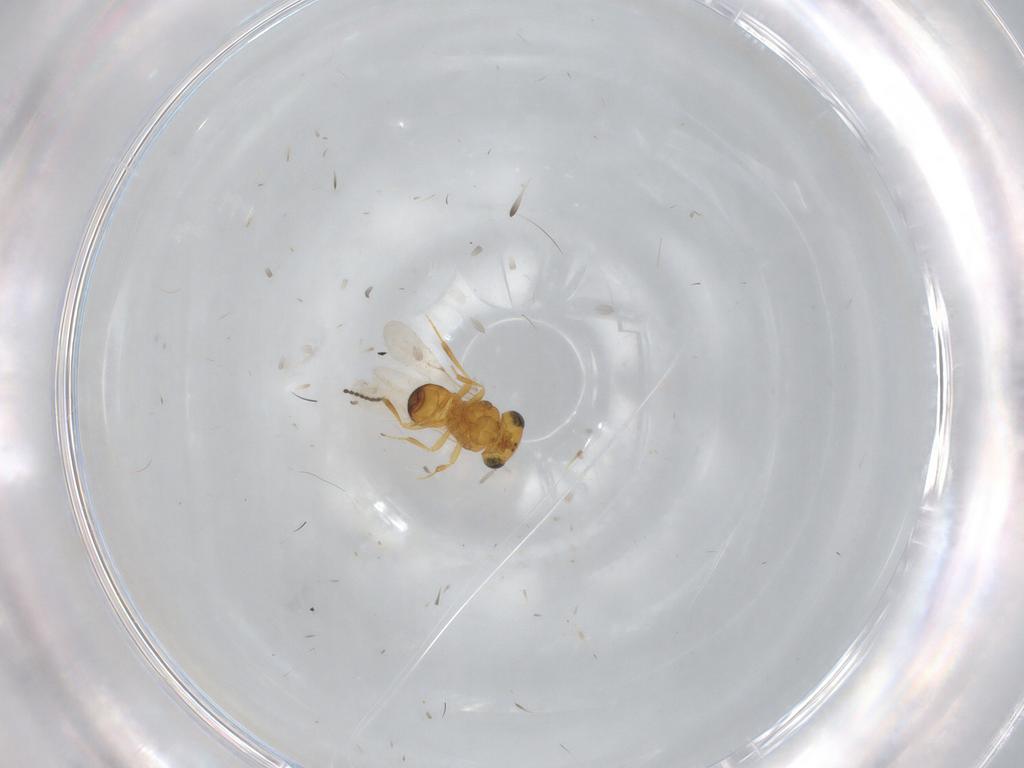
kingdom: Animalia
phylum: Arthropoda
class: Insecta
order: Hymenoptera
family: Scelionidae
